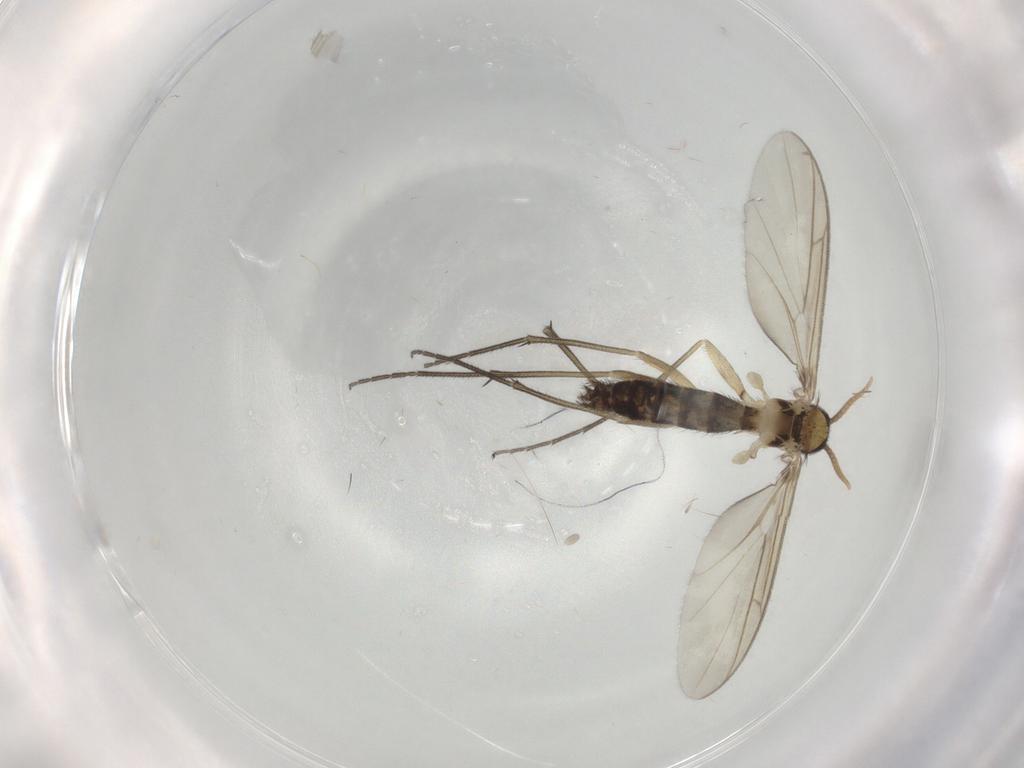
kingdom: Animalia
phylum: Arthropoda
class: Insecta
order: Diptera
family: Keroplatidae
